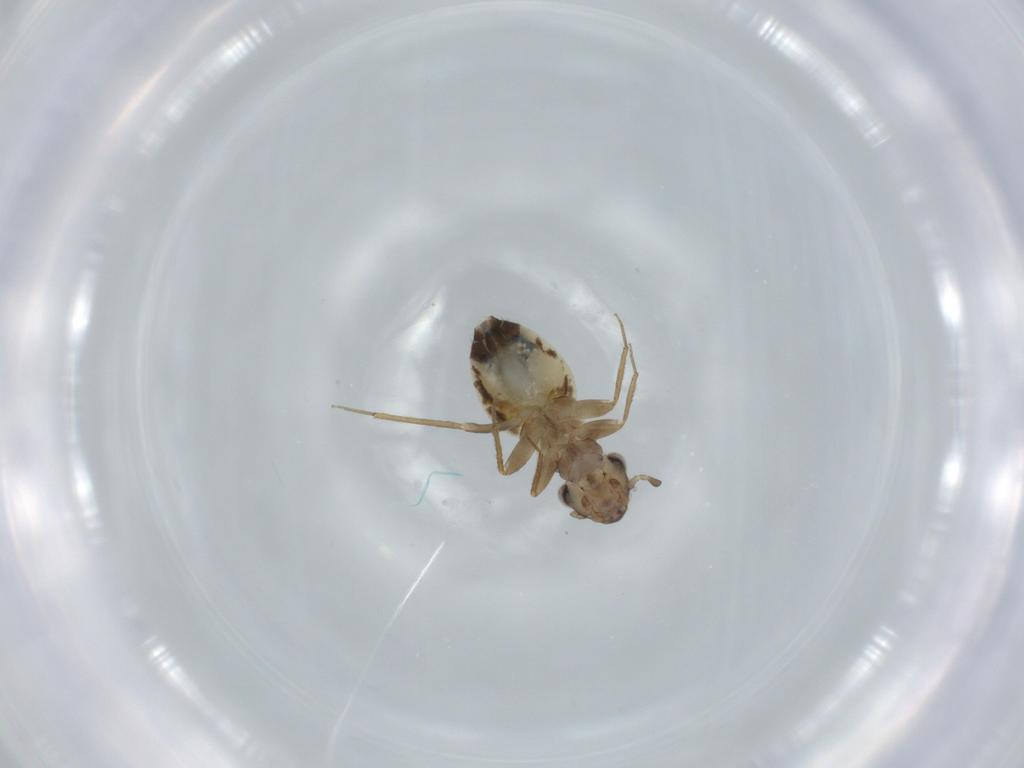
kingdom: Animalia
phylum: Arthropoda
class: Insecta
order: Psocodea
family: Lepidopsocidae
